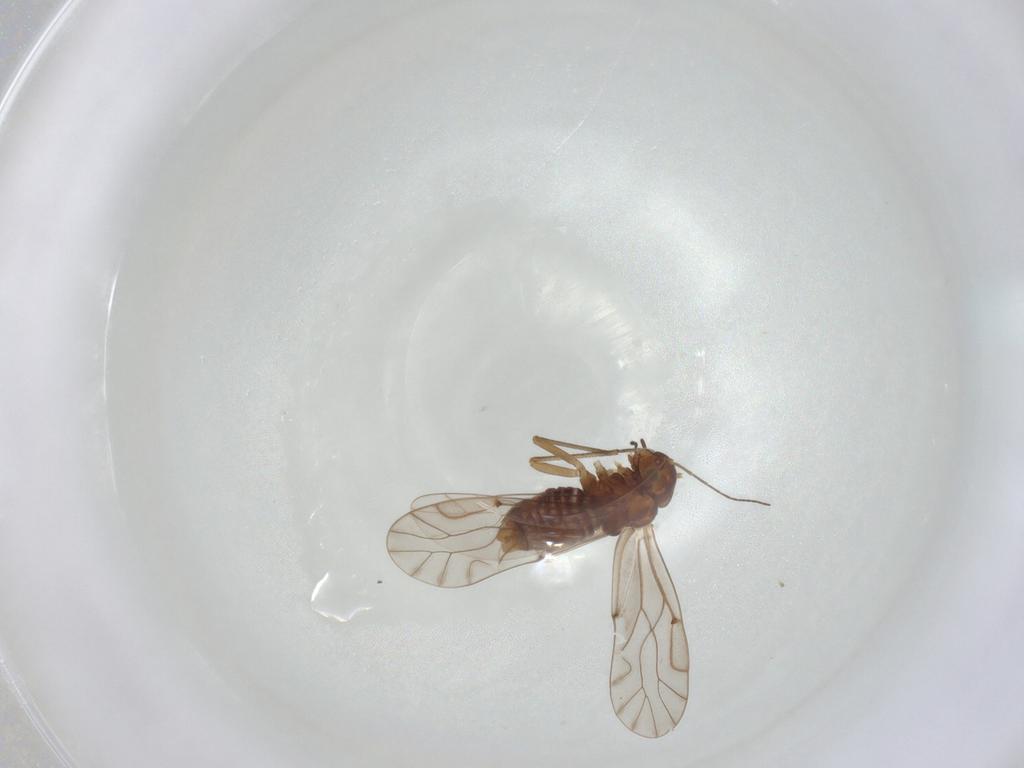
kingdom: Animalia
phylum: Arthropoda
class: Insecta
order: Psocodea
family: Lachesillidae
